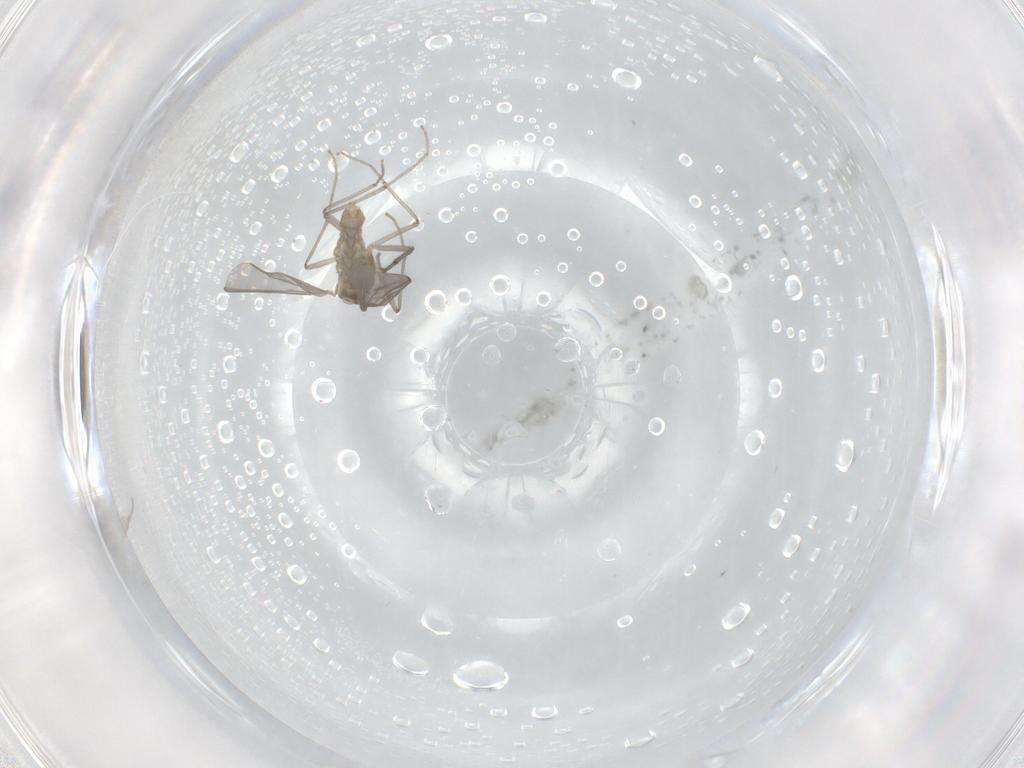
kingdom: Animalia
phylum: Arthropoda
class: Insecta
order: Diptera
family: Chironomidae
